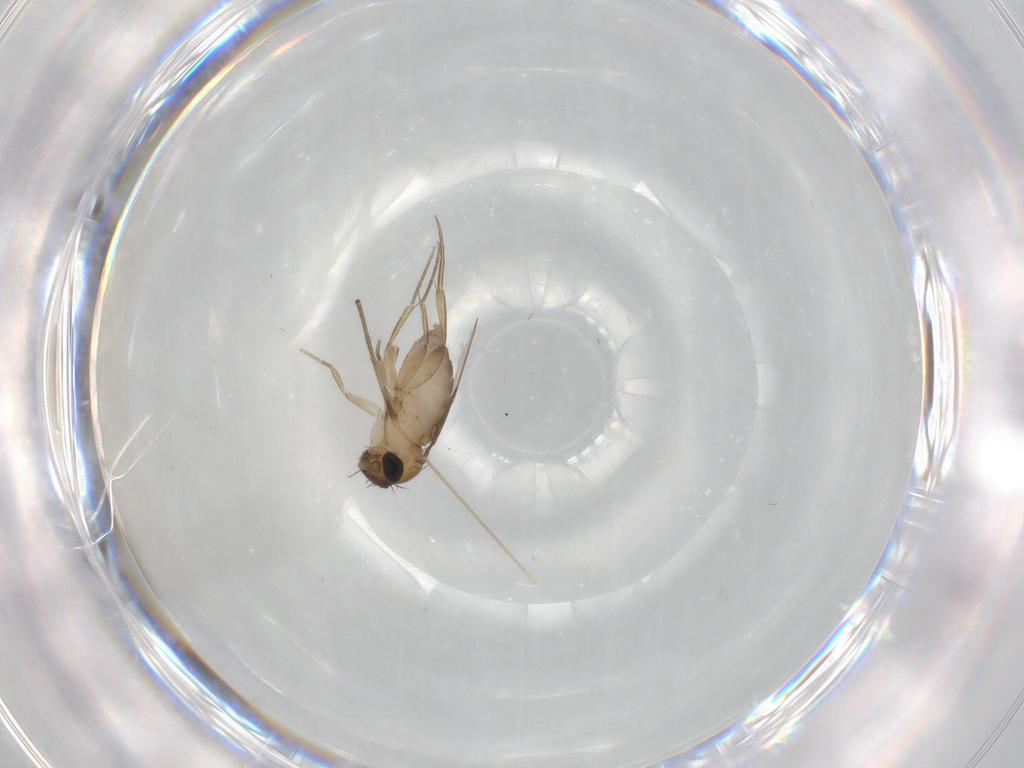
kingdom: Animalia
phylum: Arthropoda
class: Insecta
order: Diptera
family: Phoridae
